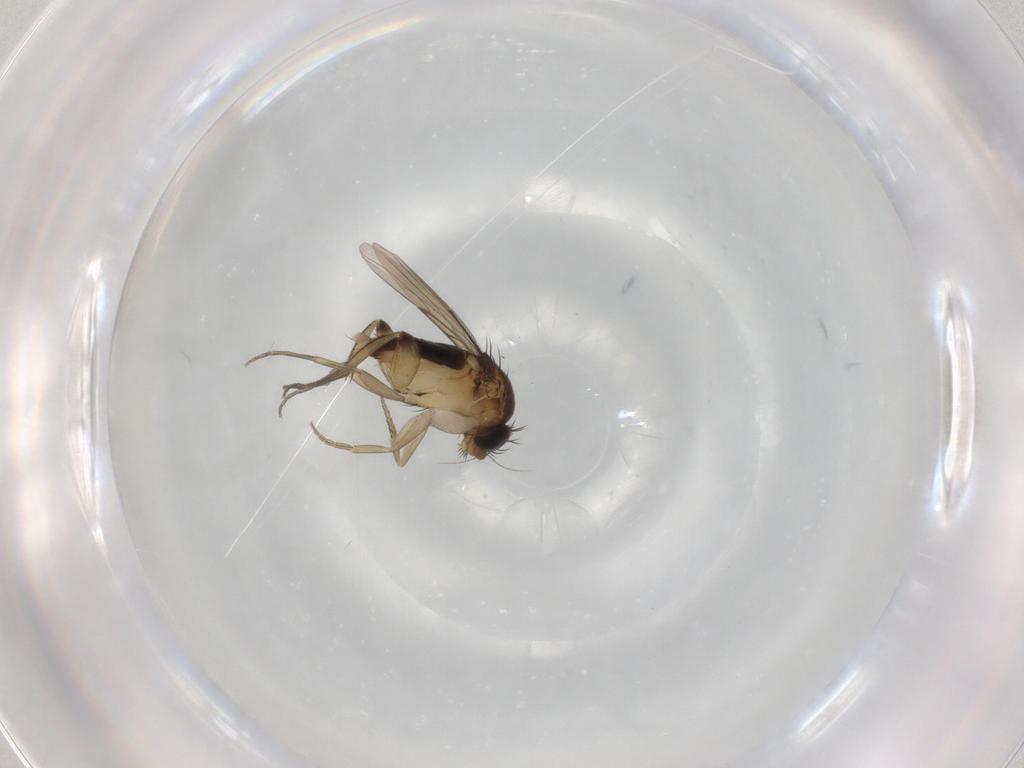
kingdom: Animalia
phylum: Arthropoda
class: Insecta
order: Diptera
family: Phoridae
